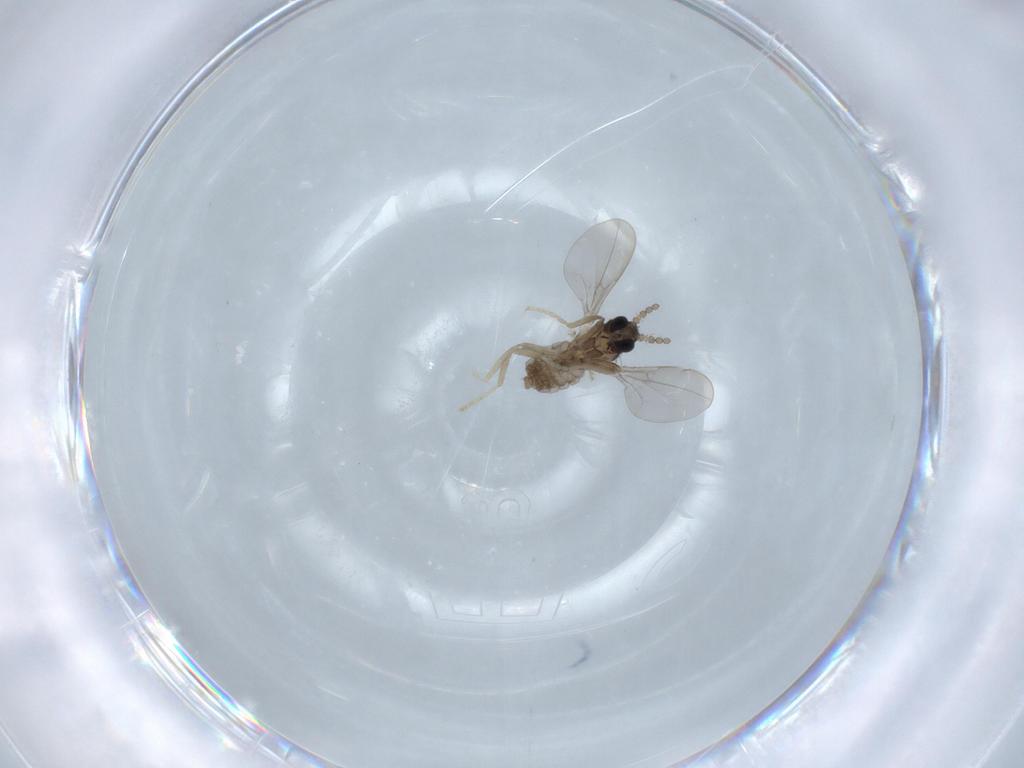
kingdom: Animalia
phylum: Arthropoda
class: Insecta
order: Diptera
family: Cecidomyiidae
